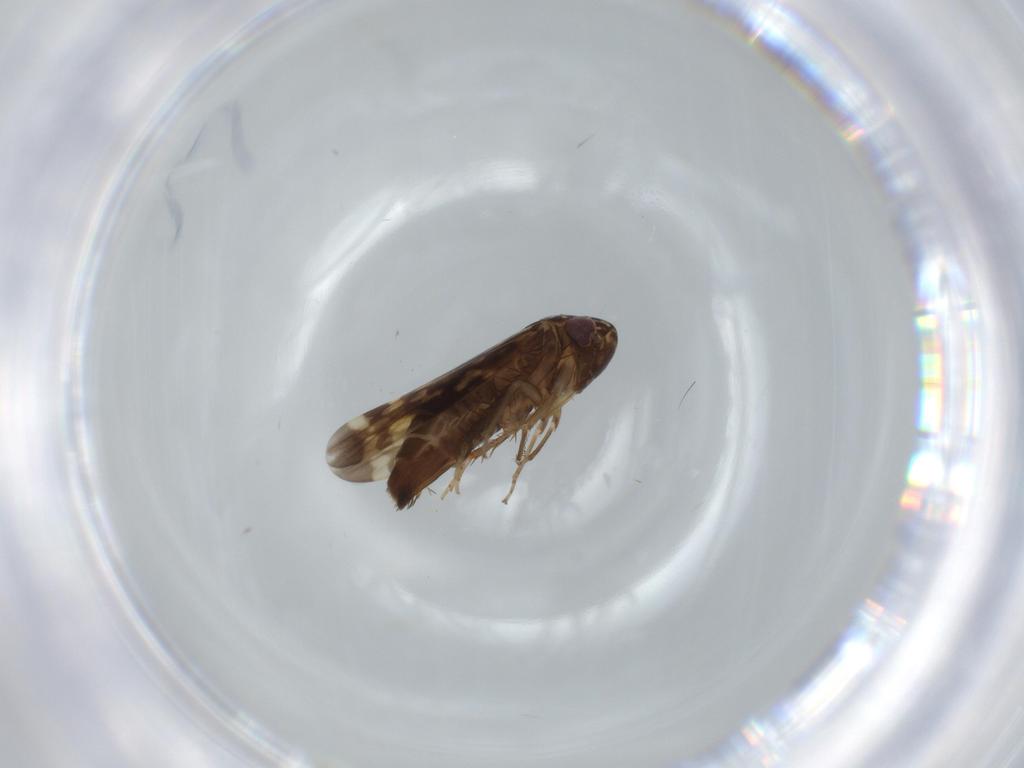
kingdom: Animalia
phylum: Arthropoda
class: Insecta
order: Hemiptera
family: Cicadellidae
